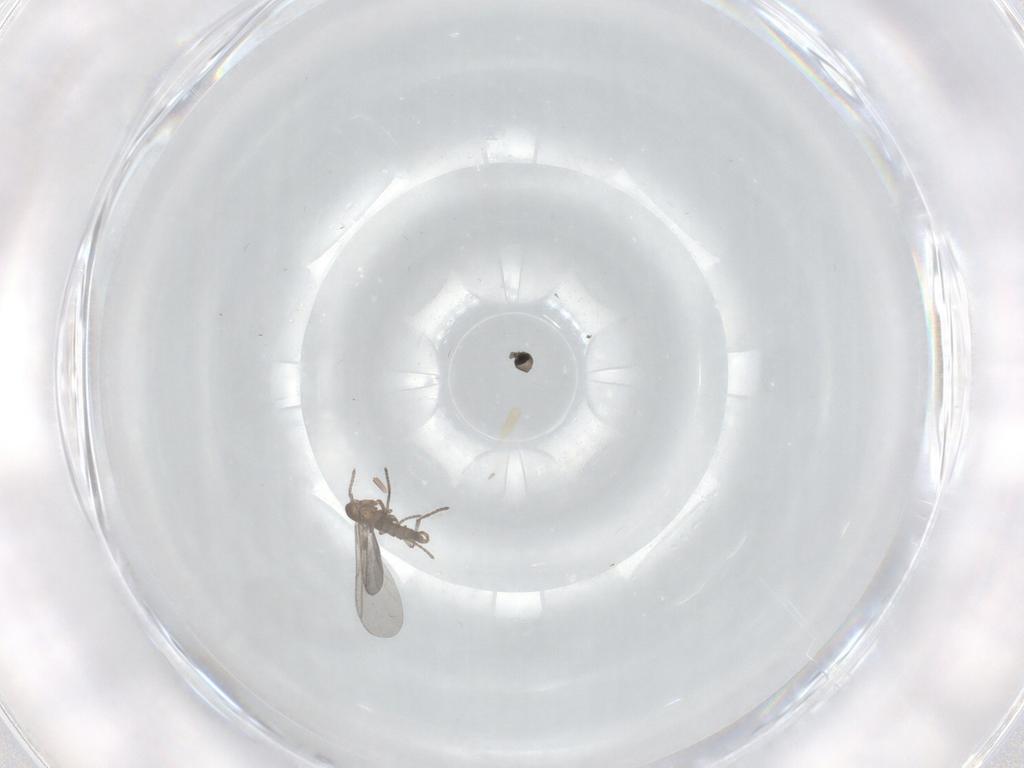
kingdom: Animalia
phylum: Arthropoda
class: Insecta
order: Diptera
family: Sciaridae
